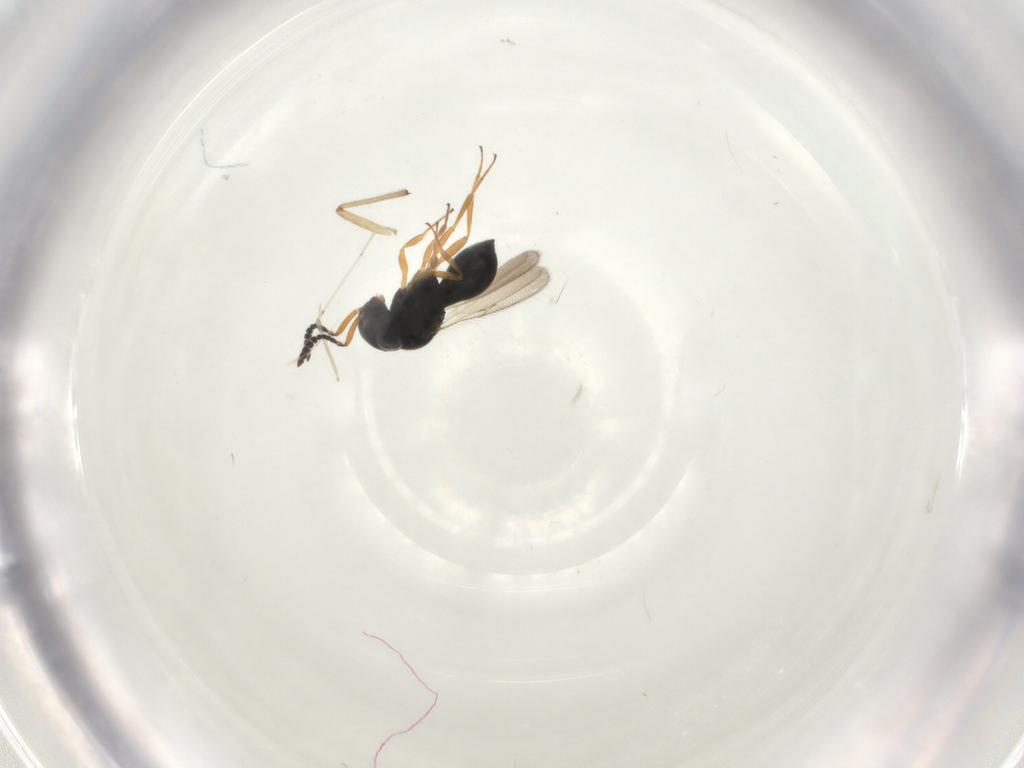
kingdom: Animalia
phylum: Arthropoda
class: Insecta
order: Hymenoptera
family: Scelionidae
